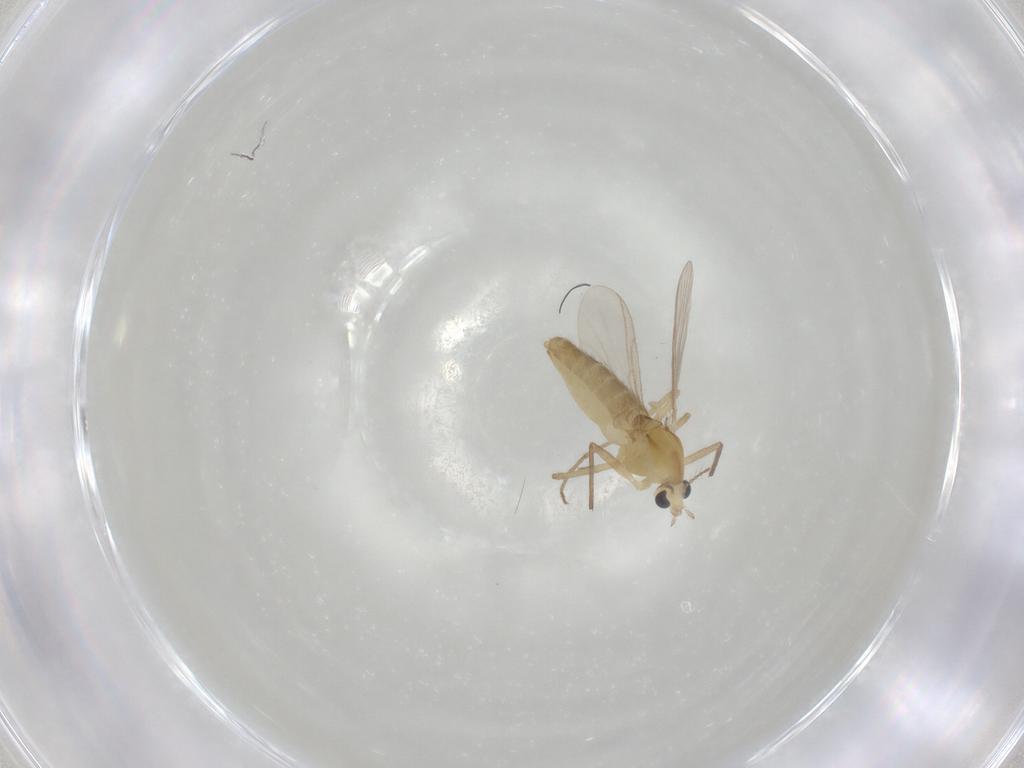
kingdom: Animalia
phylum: Arthropoda
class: Insecta
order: Diptera
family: Chironomidae
